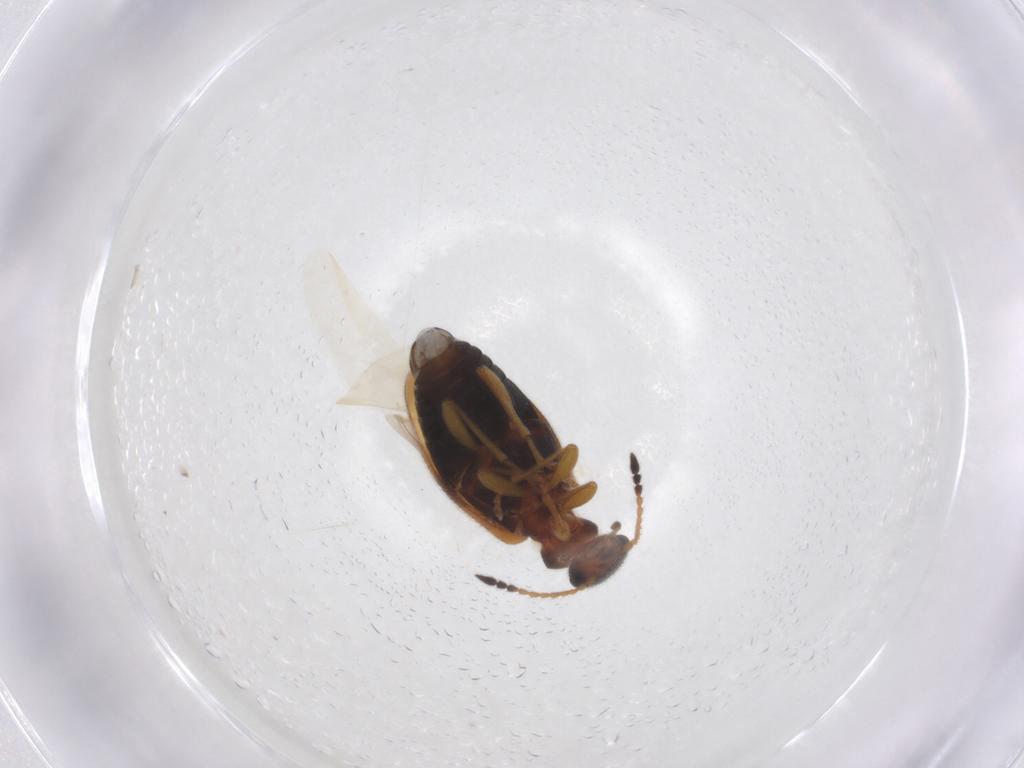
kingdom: Animalia
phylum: Arthropoda
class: Insecta
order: Coleoptera
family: Anthicidae
